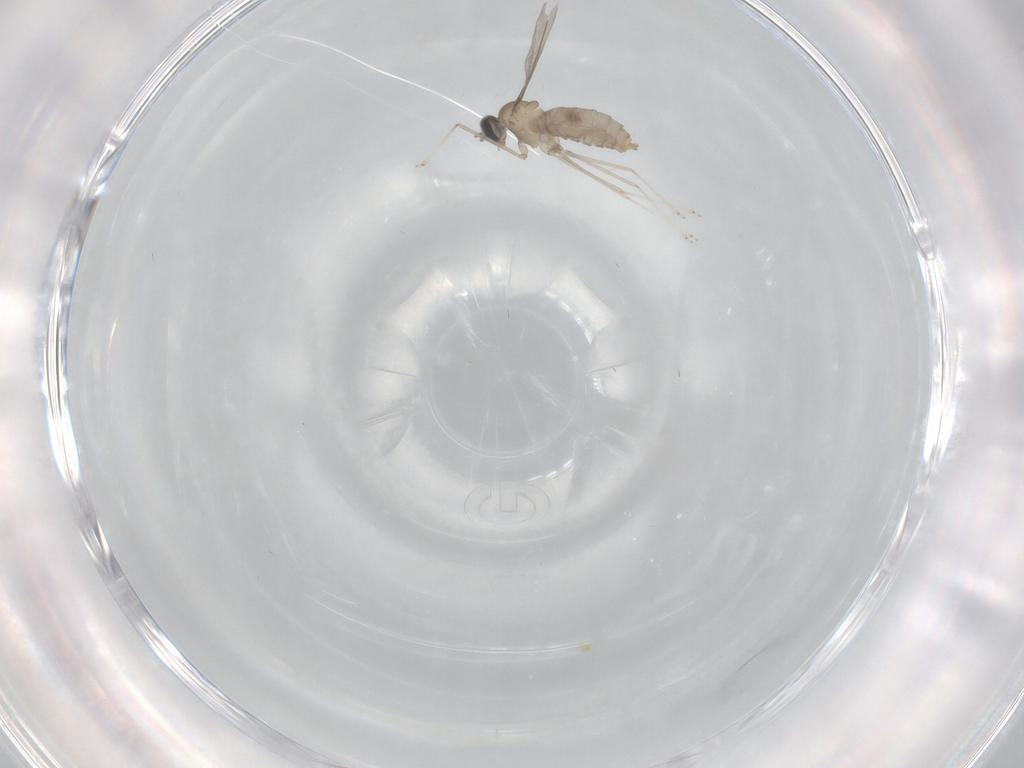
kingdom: Animalia
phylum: Arthropoda
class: Insecta
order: Diptera
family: Cecidomyiidae
